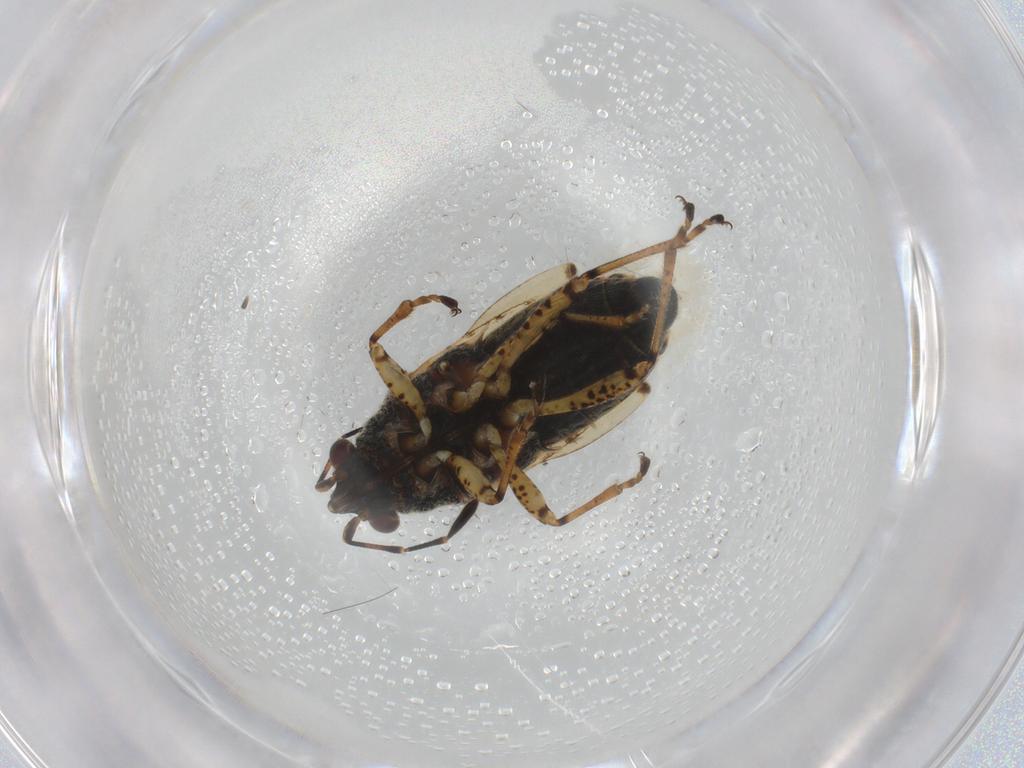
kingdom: Animalia
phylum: Arthropoda
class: Insecta
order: Hemiptera
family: Lygaeidae
